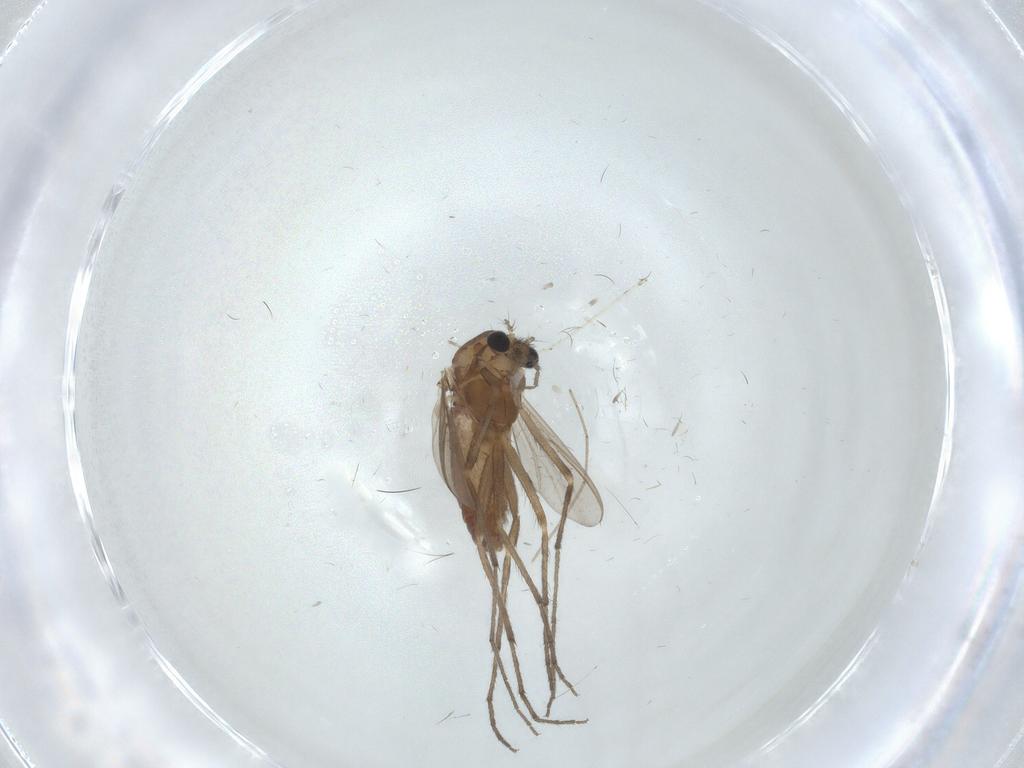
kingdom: Animalia
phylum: Arthropoda
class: Insecta
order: Diptera
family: Chironomidae
